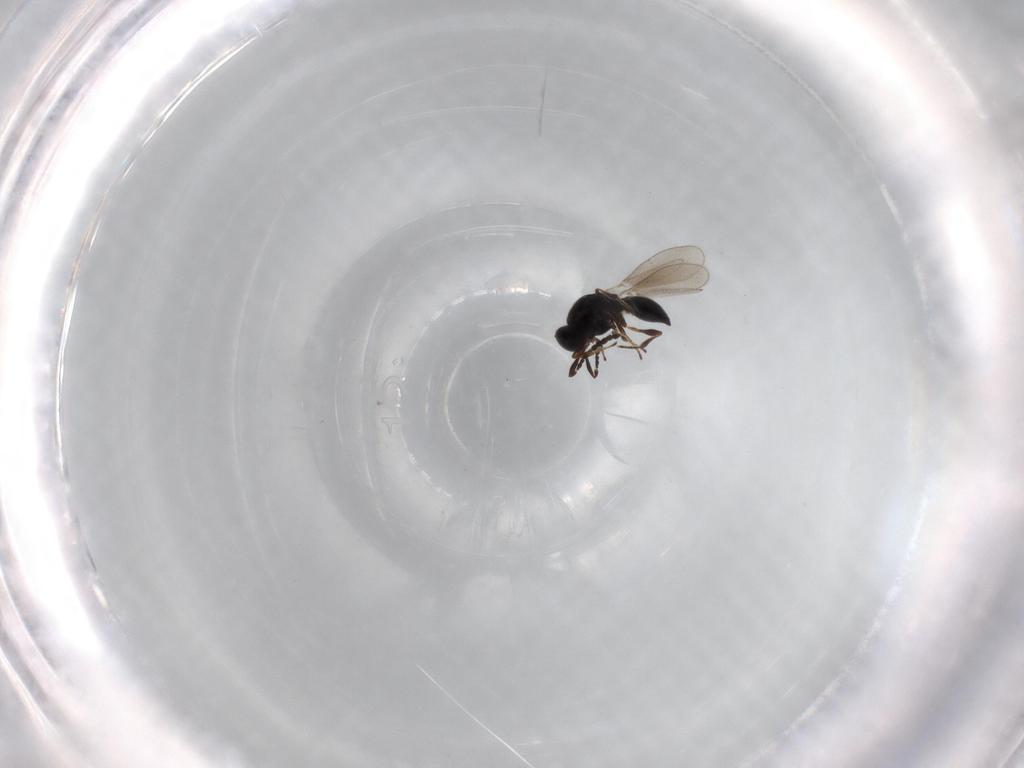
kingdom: Animalia
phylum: Arthropoda
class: Insecta
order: Hymenoptera
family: Platygastridae
